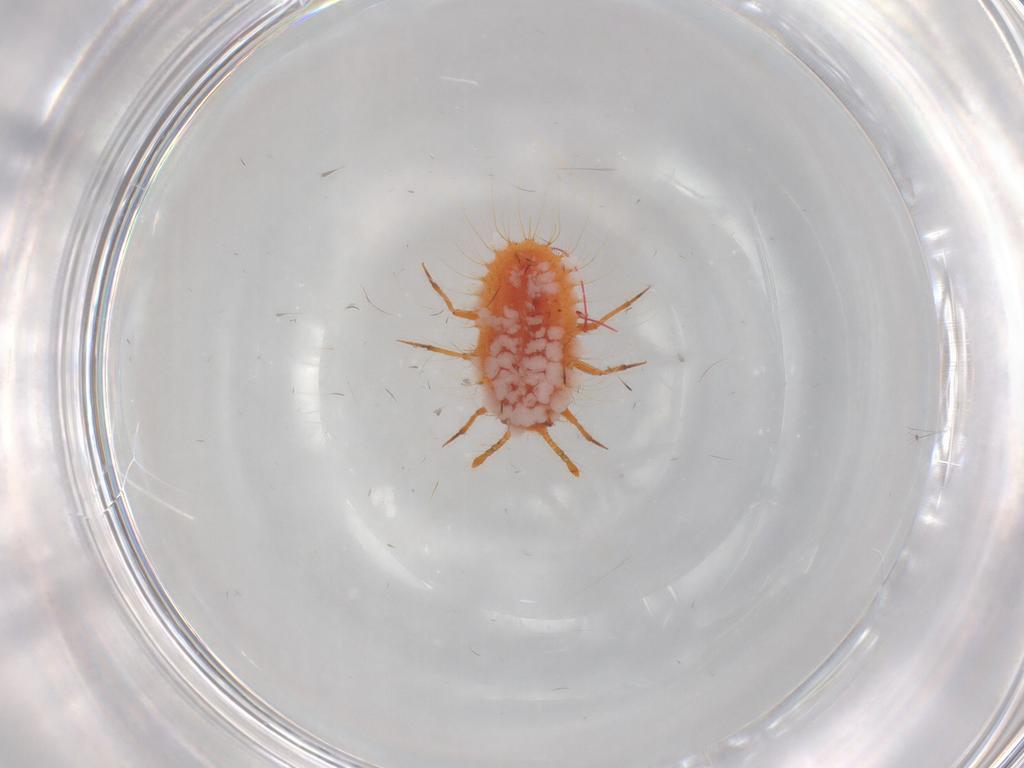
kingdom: Animalia
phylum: Arthropoda
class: Insecta
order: Hemiptera
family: Coccoidea_incertae_sedis
